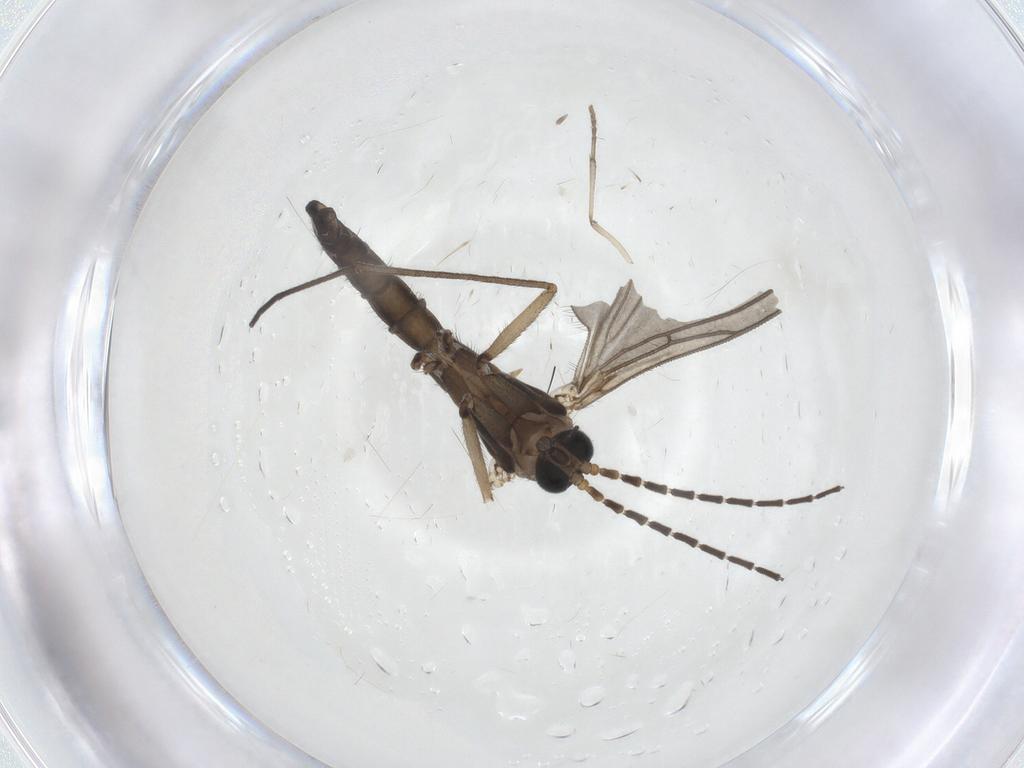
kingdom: Animalia
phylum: Arthropoda
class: Insecta
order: Diptera
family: Psychodidae
